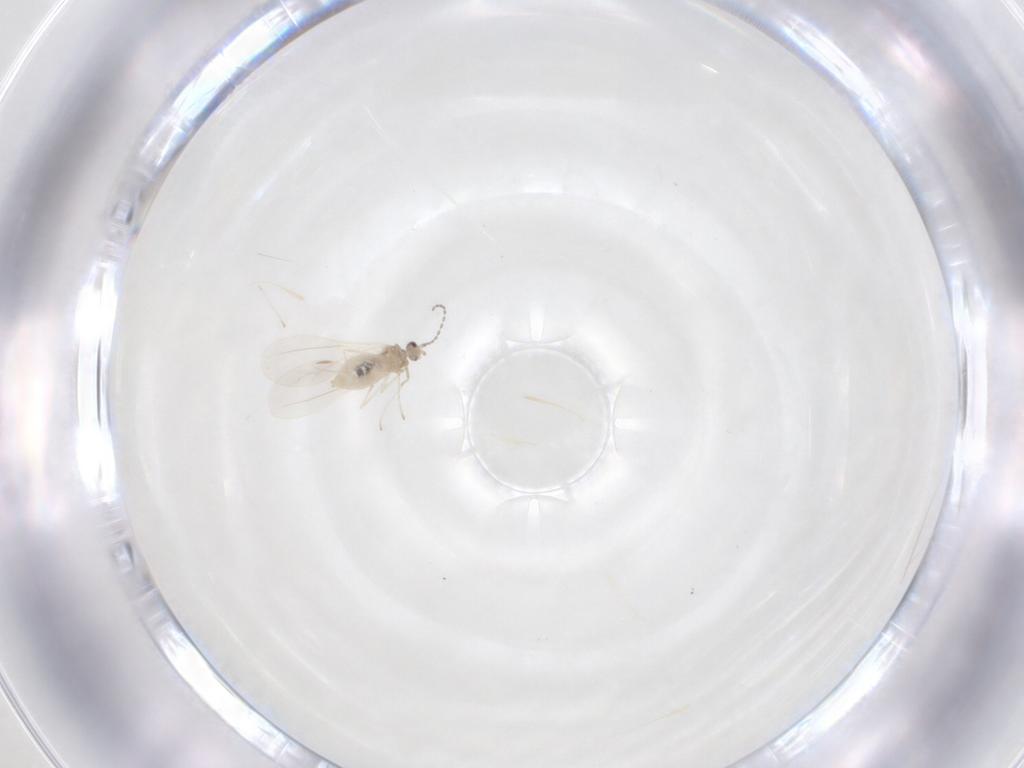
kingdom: Animalia
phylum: Arthropoda
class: Insecta
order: Diptera
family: Cecidomyiidae
